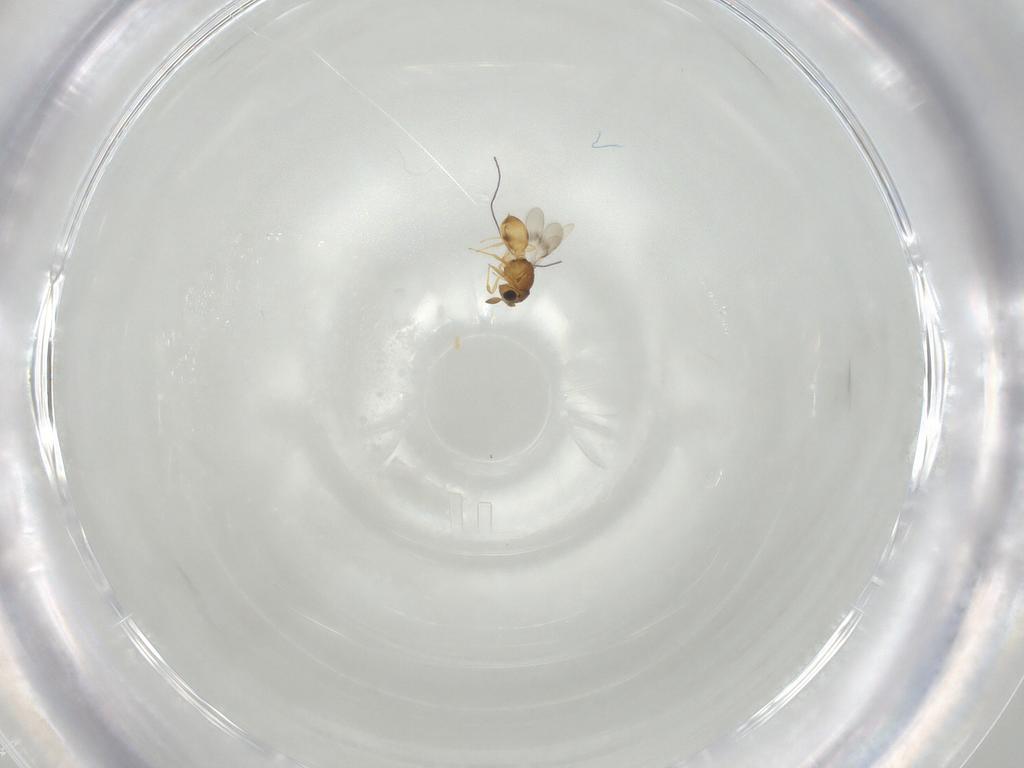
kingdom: Animalia
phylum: Arthropoda
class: Insecta
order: Hymenoptera
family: Scelionidae
